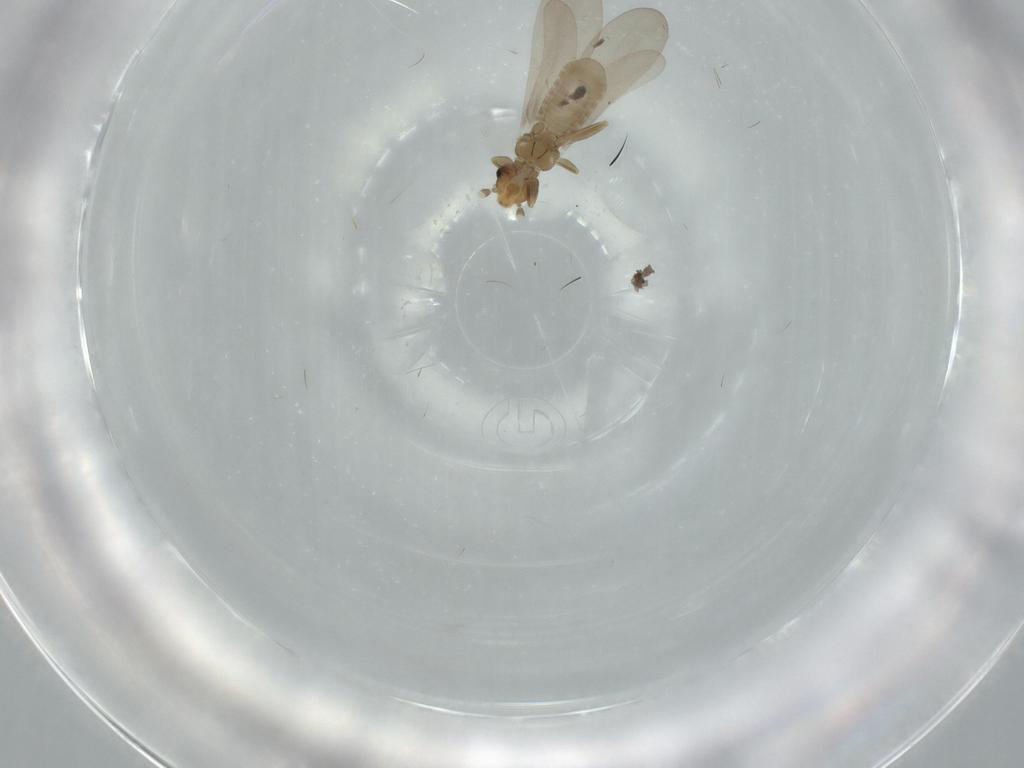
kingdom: Animalia
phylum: Arthropoda
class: Insecta
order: Psocodea
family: Liposcelididae
